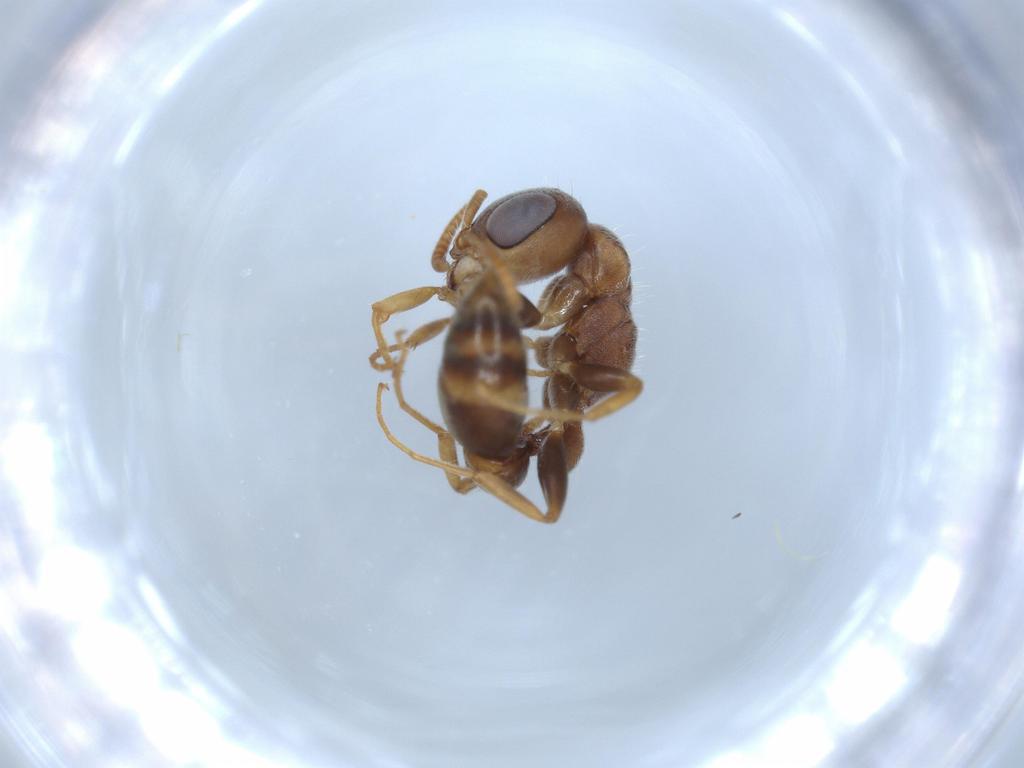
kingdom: Animalia
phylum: Arthropoda
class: Insecta
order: Hymenoptera
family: Formicidae
